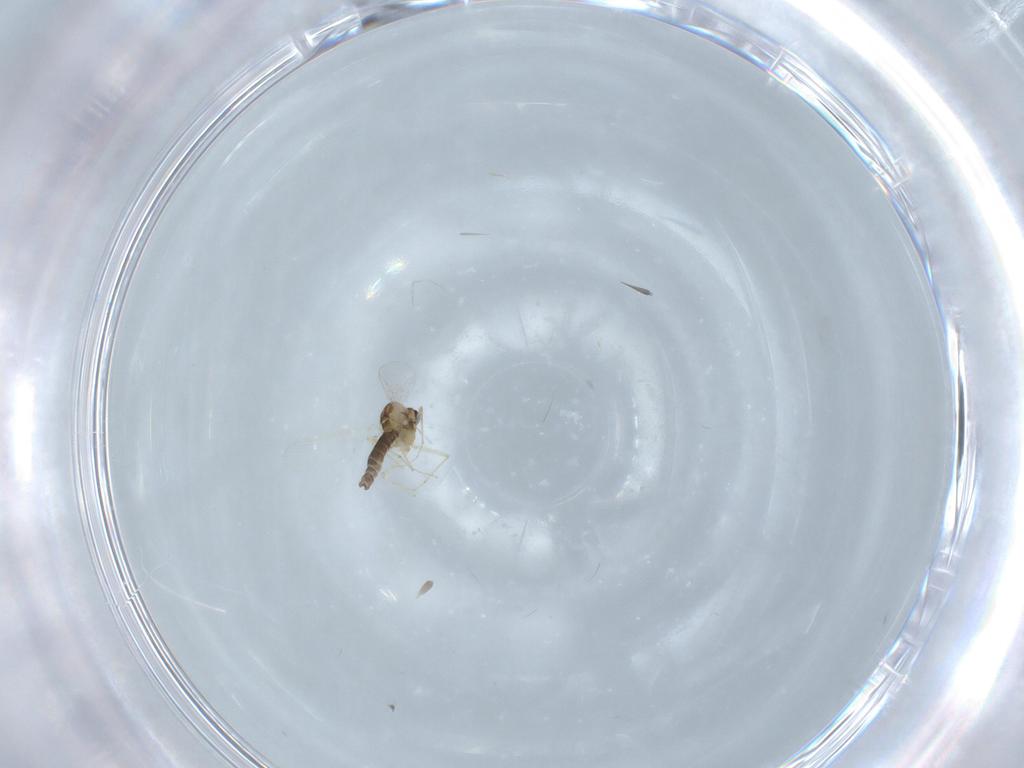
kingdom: Animalia
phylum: Arthropoda
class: Insecta
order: Diptera
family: Chironomidae
